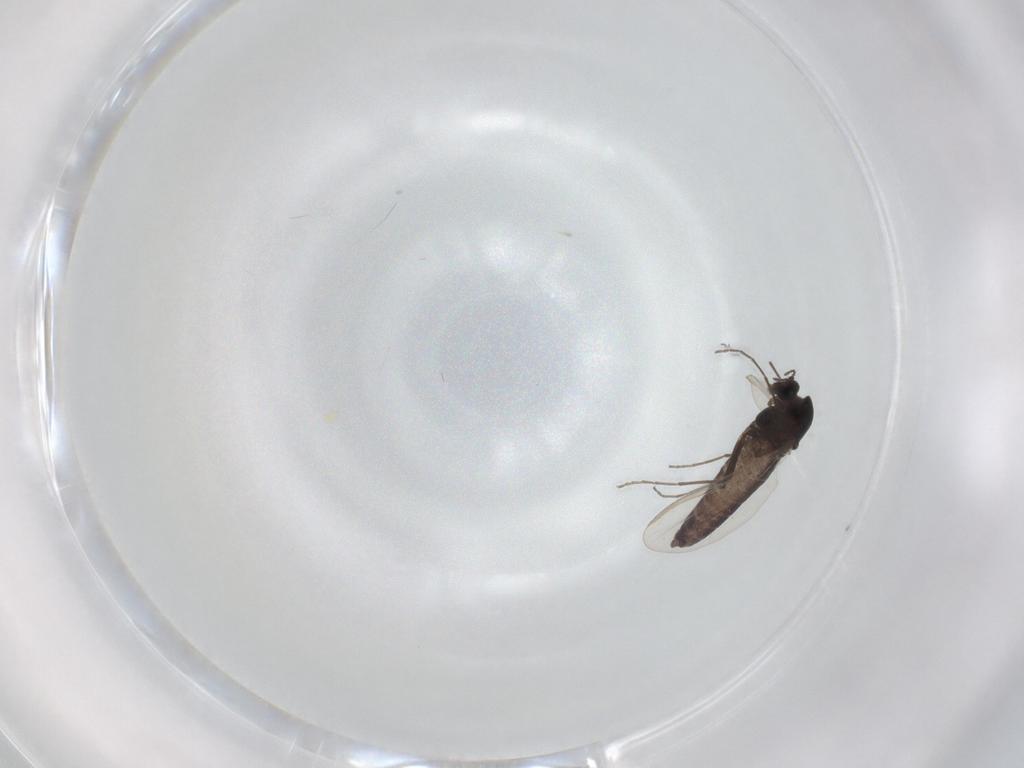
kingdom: Animalia
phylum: Arthropoda
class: Insecta
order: Diptera
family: Chironomidae
